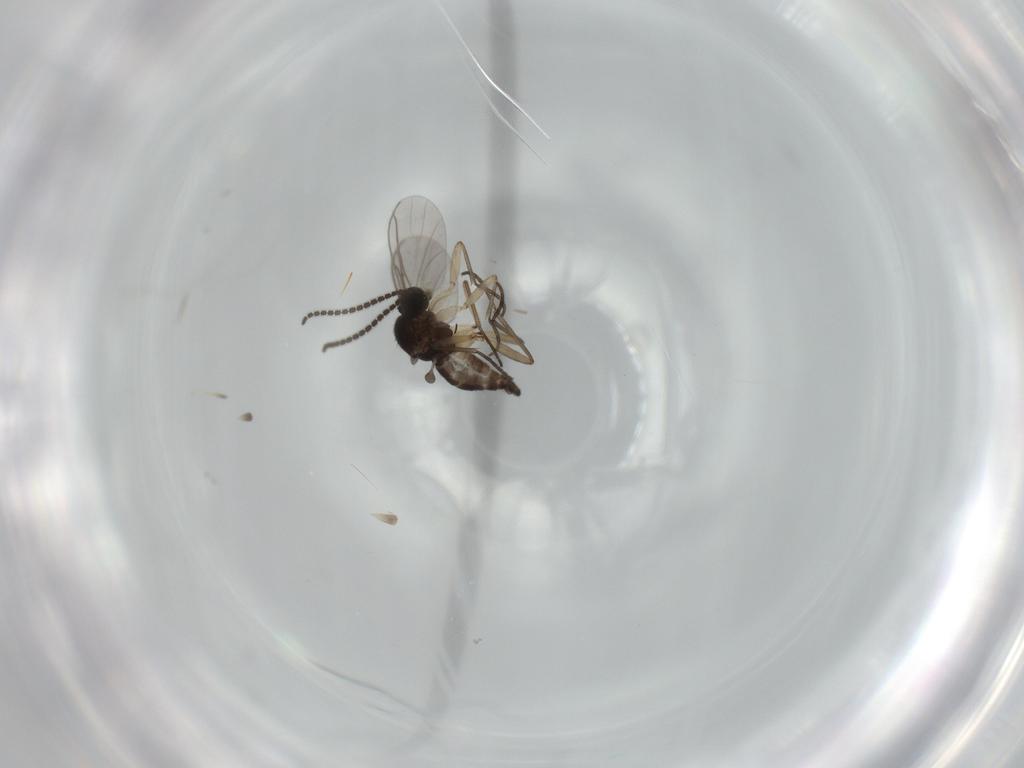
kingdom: Animalia
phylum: Arthropoda
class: Insecta
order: Diptera
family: Sciaridae
